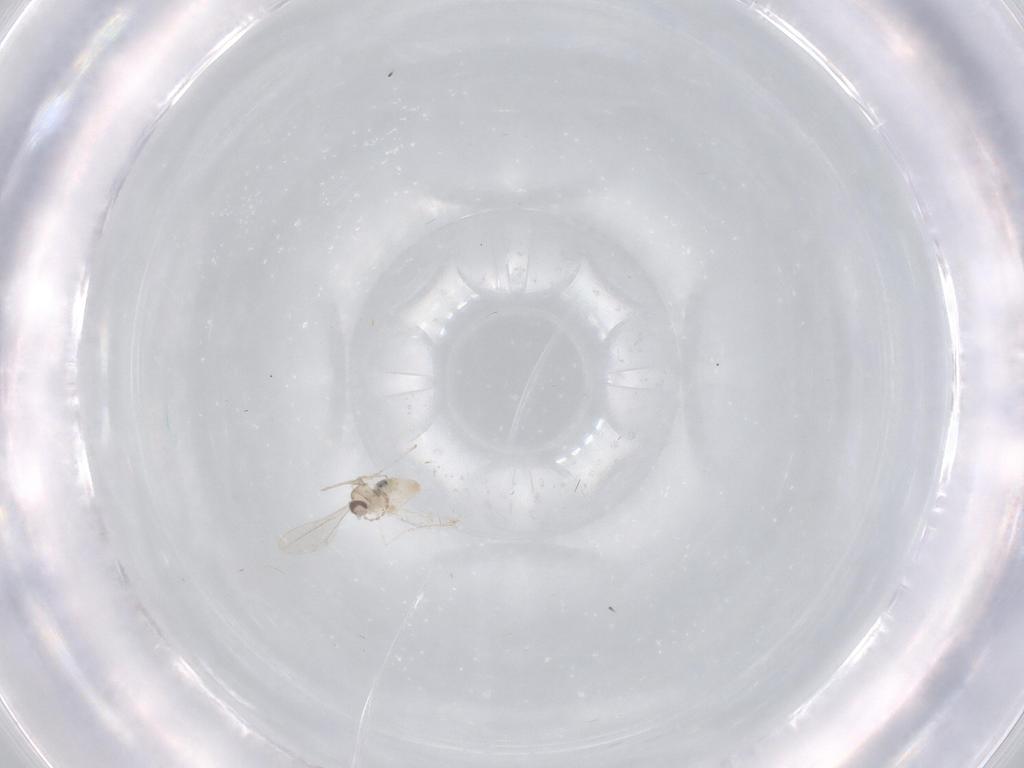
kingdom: Animalia
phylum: Arthropoda
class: Insecta
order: Diptera
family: Cecidomyiidae
